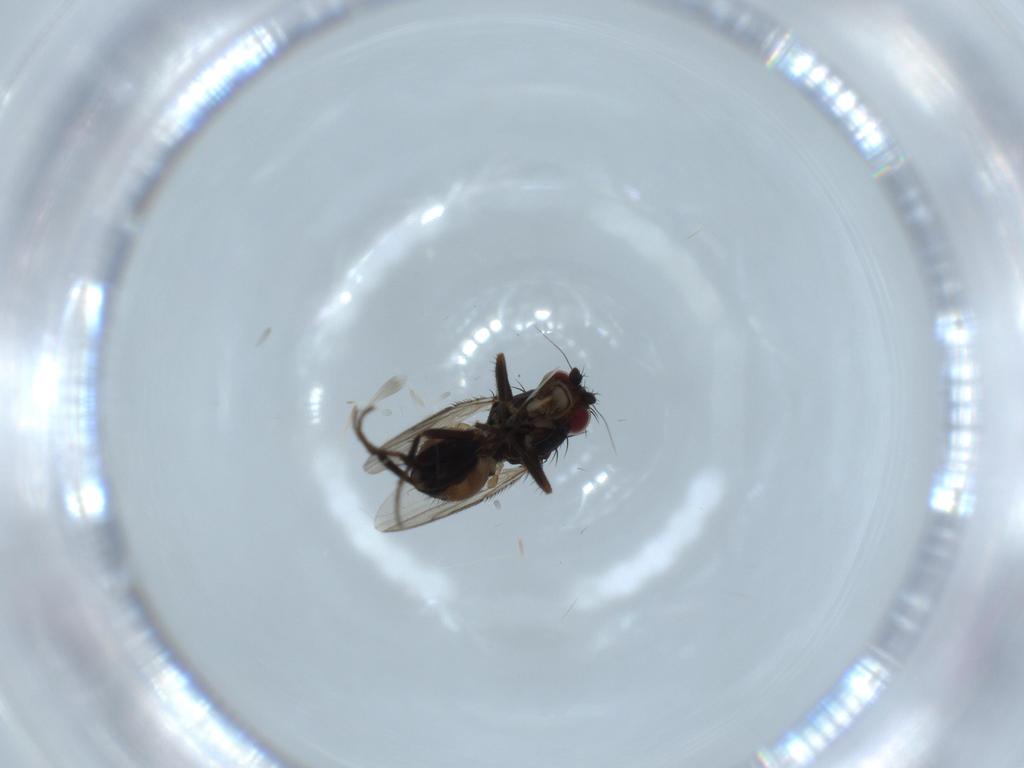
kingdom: Animalia
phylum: Arthropoda
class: Insecta
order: Diptera
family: Sphaeroceridae
